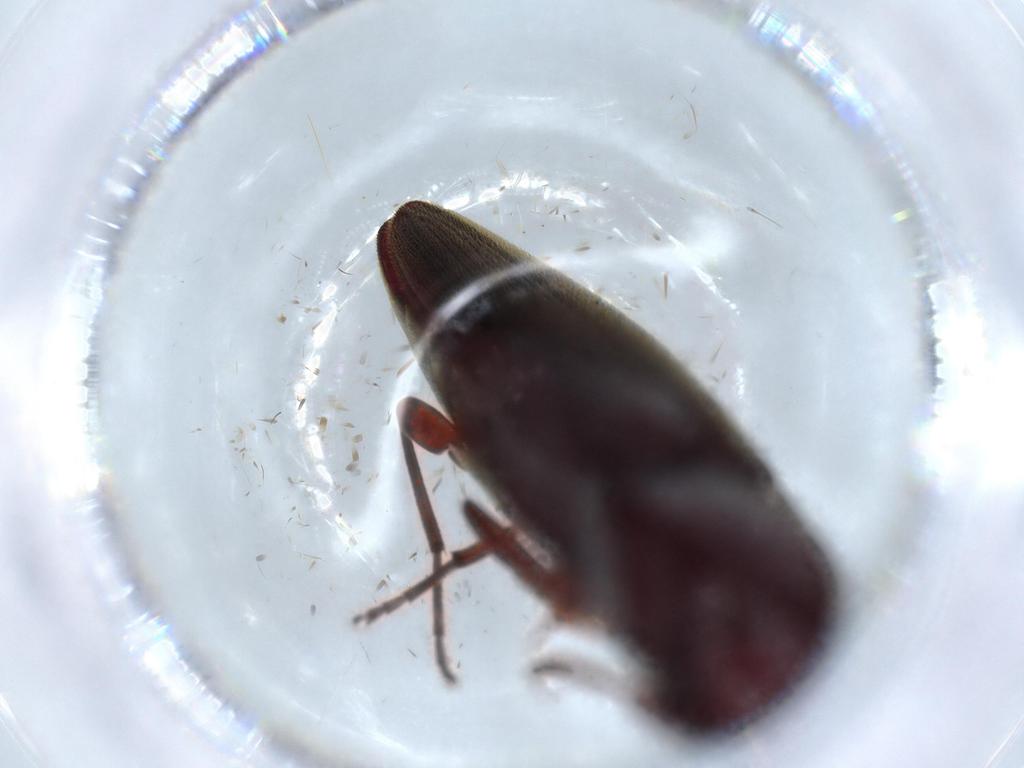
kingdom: Animalia
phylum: Arthropoda
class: Insecta
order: Coleoptera
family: Eucnemidae
